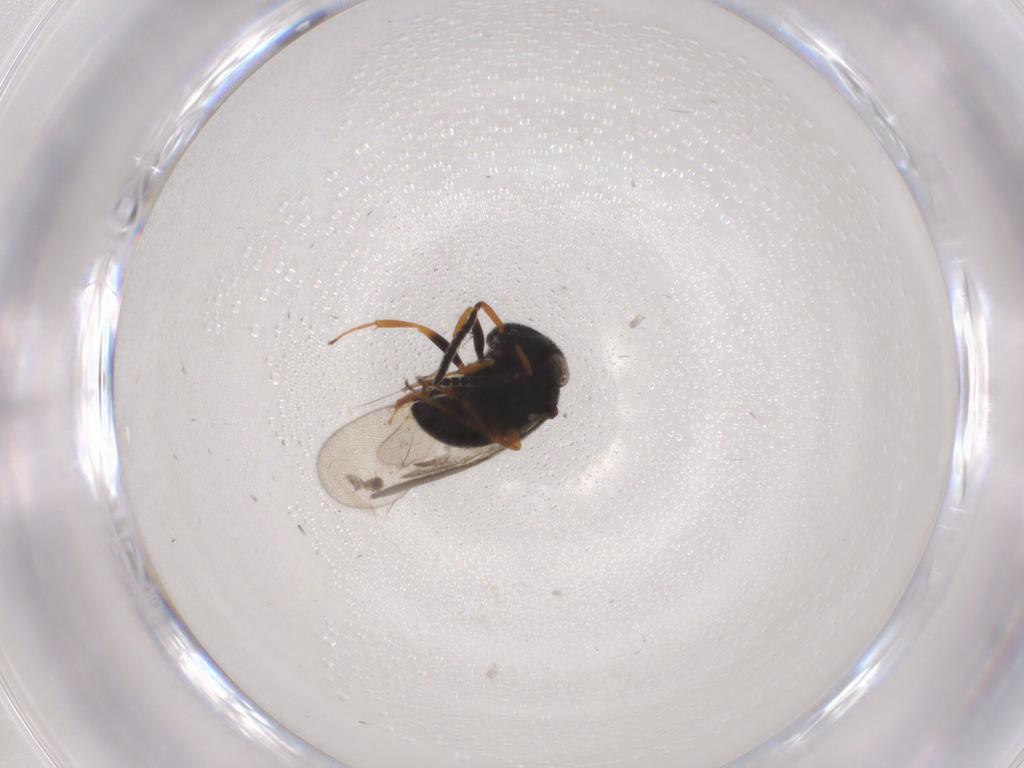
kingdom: Animalia
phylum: Arthropoda
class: Insecta
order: Hymenoptera
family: Scelionidae
